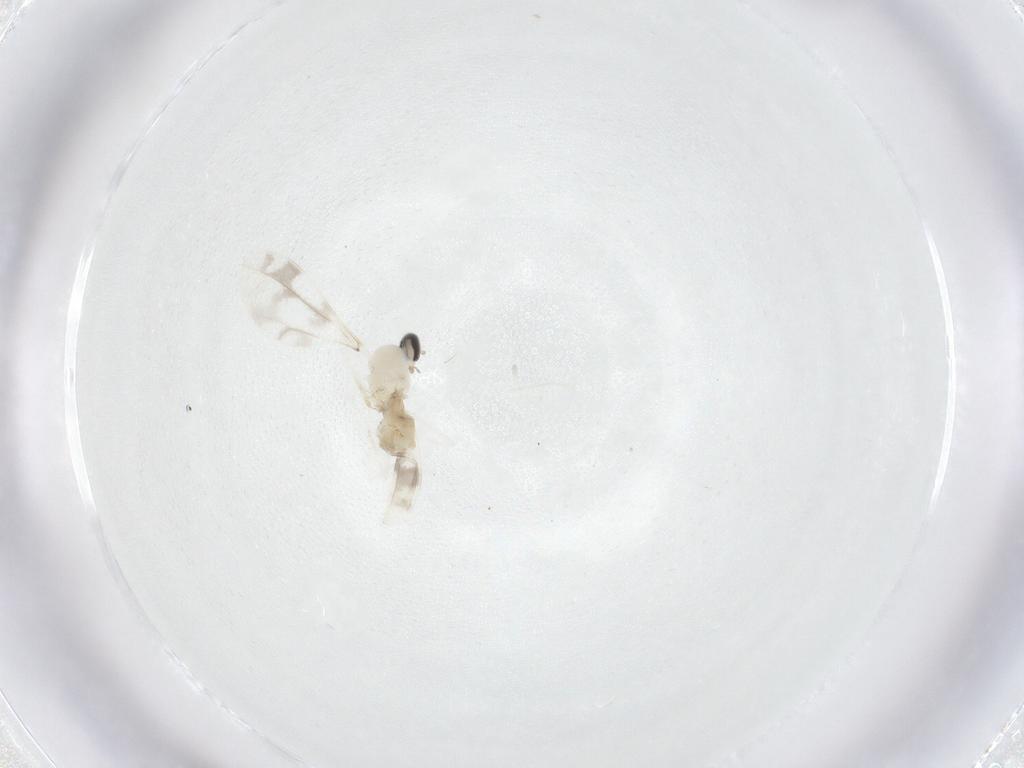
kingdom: Animalia
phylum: Arthropoda
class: Insecta
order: Diptera
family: Cecidomyiidae
